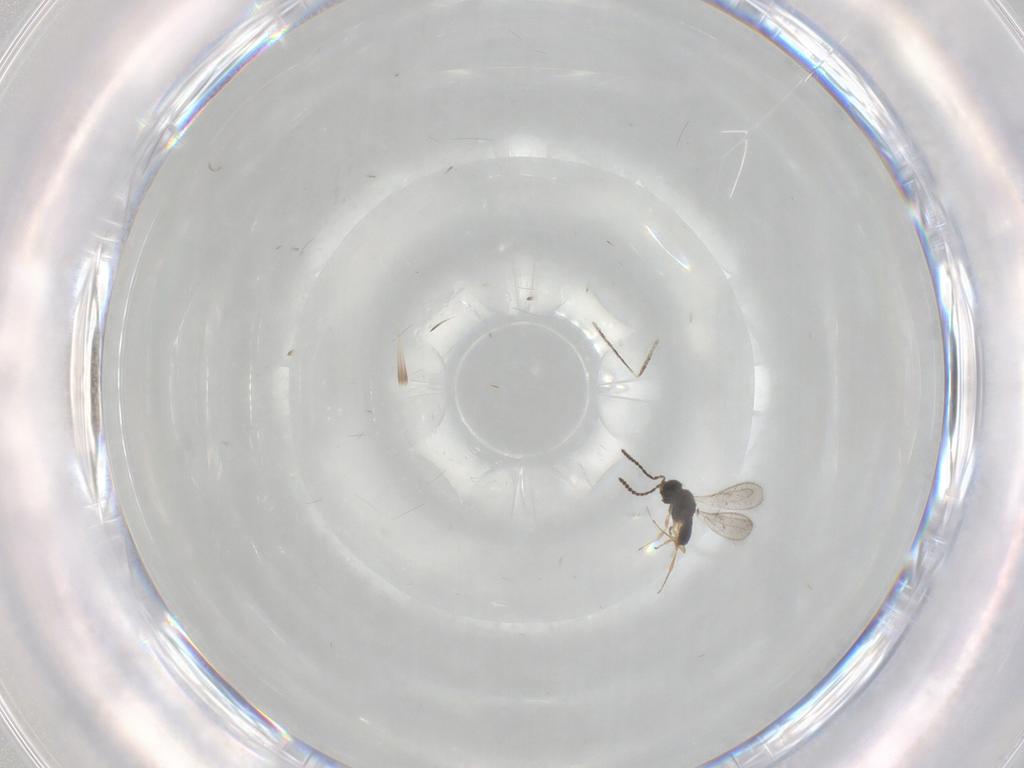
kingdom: Animalia
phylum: Arthropoda
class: Insecta
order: Hymenoptera
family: Scelionidae
